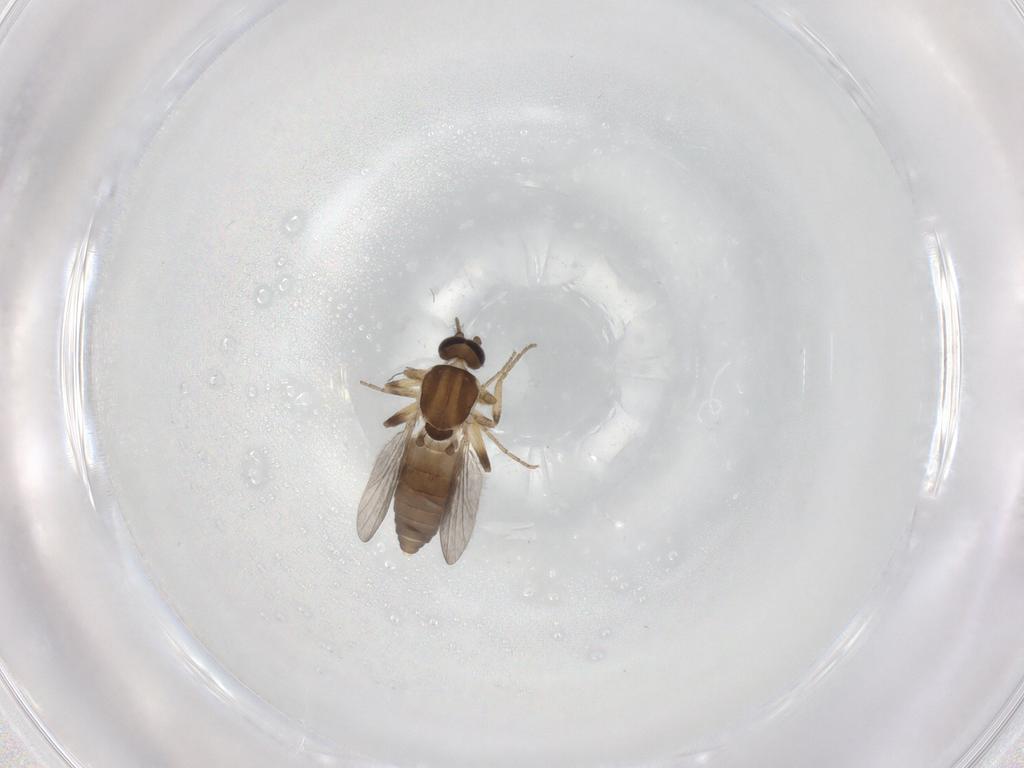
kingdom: Animalia
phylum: Arthropoda
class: Insecta
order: Diptera
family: Ceratopogonidae
